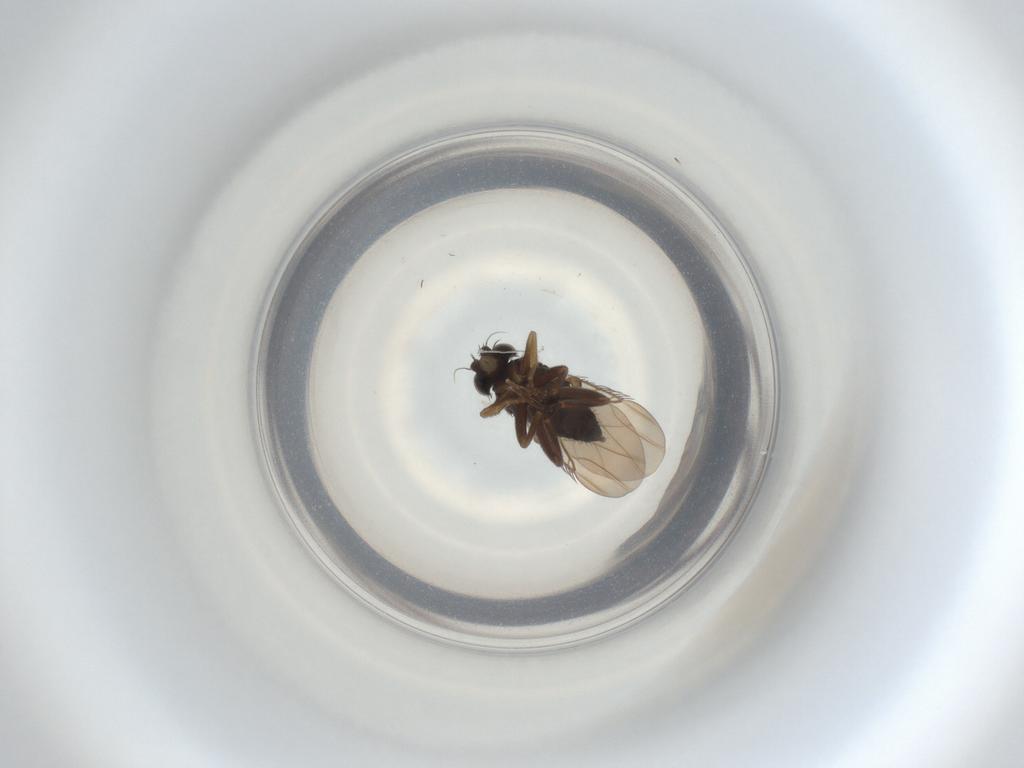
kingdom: Animalia
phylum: Arthropoda
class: Insecta
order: Diptera
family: Phoridae
